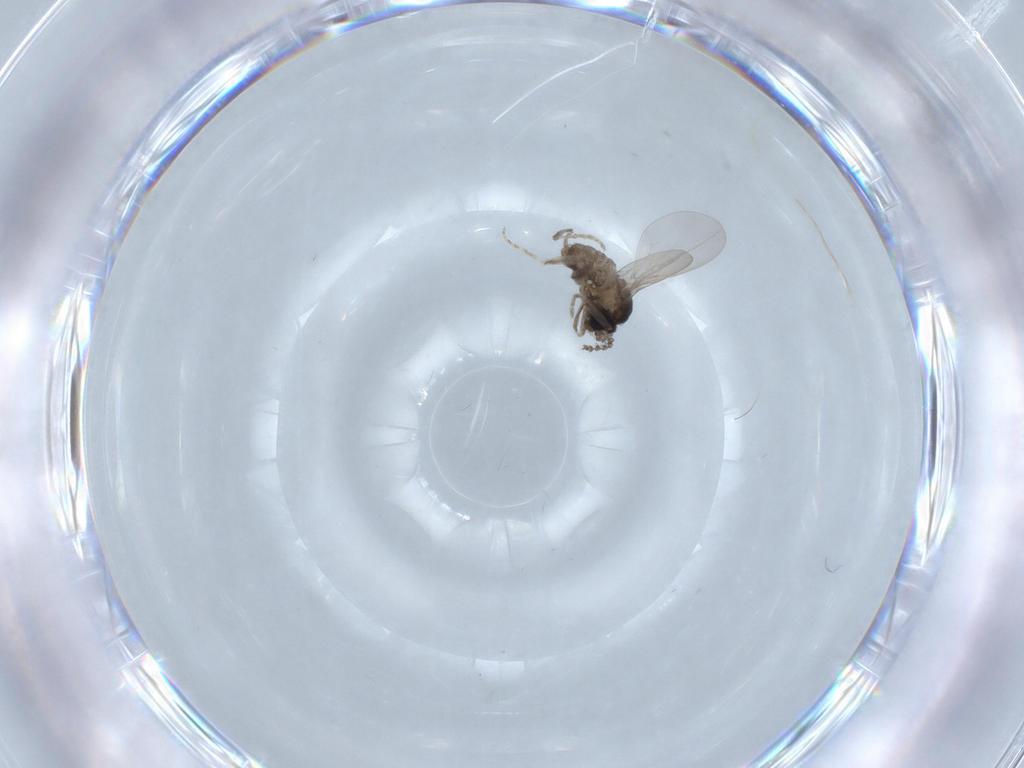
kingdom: Animalia
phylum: Arthropoda
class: Insecta
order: Diptera
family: Cecidomyiidae
